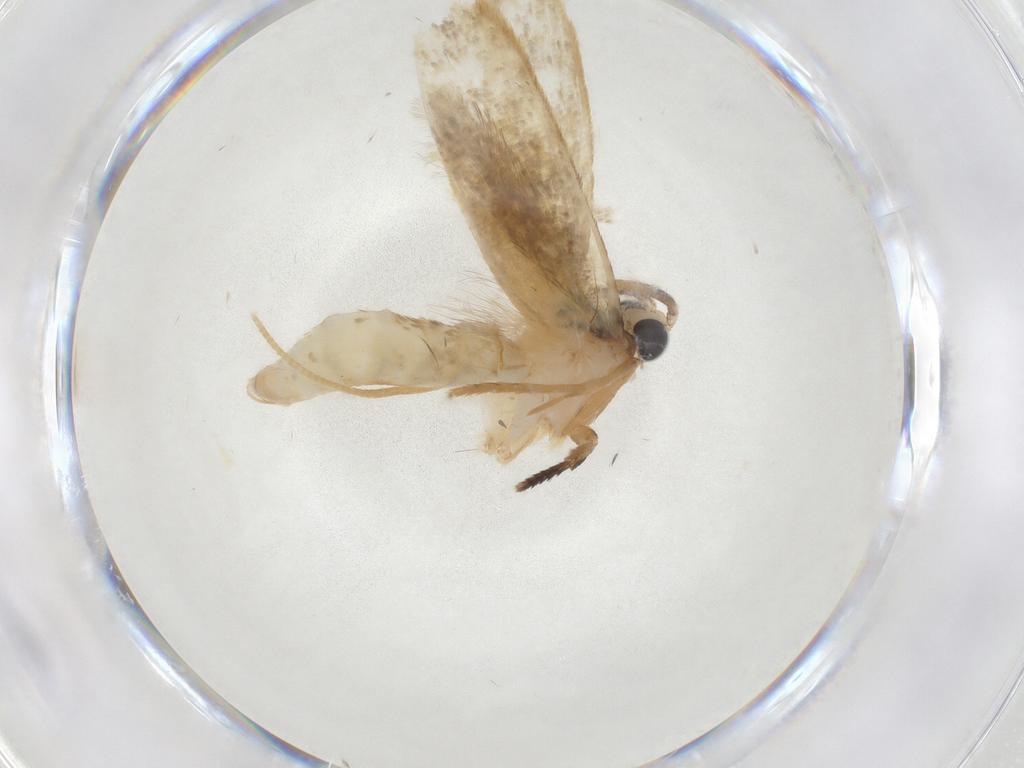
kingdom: Animalia
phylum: Arthropoda
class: Insecta
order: Lepidoptera
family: Tineidae
